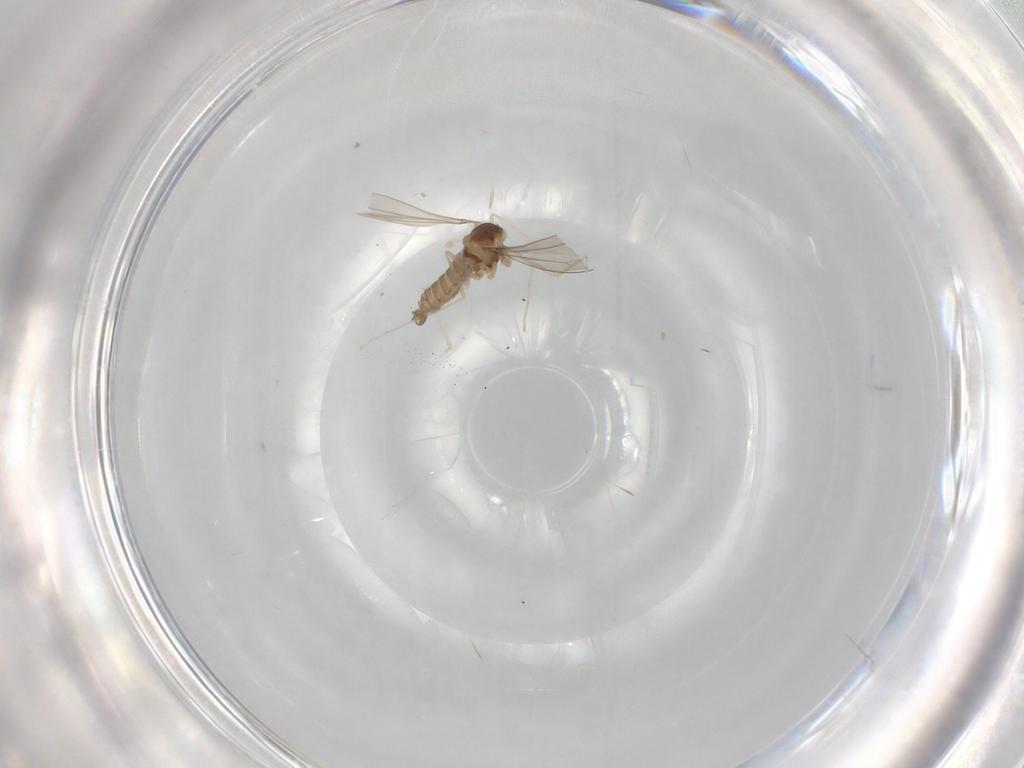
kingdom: Animalia
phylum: Arthropoda
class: Insecta
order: Diptera
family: Cecidomyiidae
